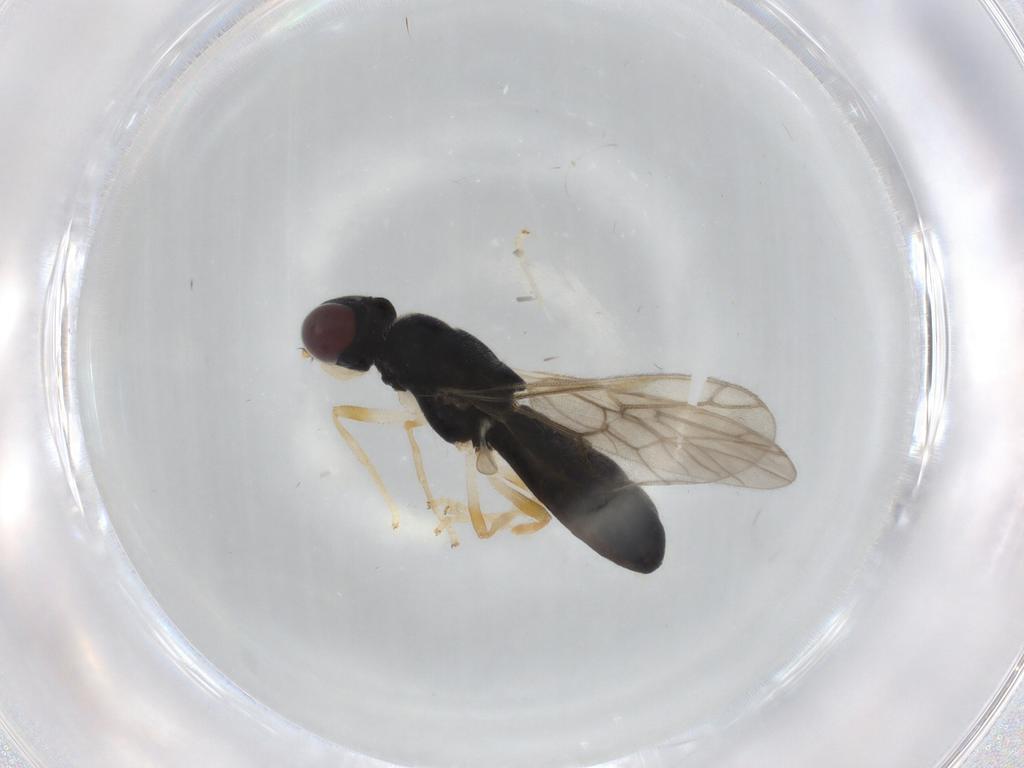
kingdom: Animalia
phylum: Arthropoda
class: Insecta
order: Diptera
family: Stratiomyidae
